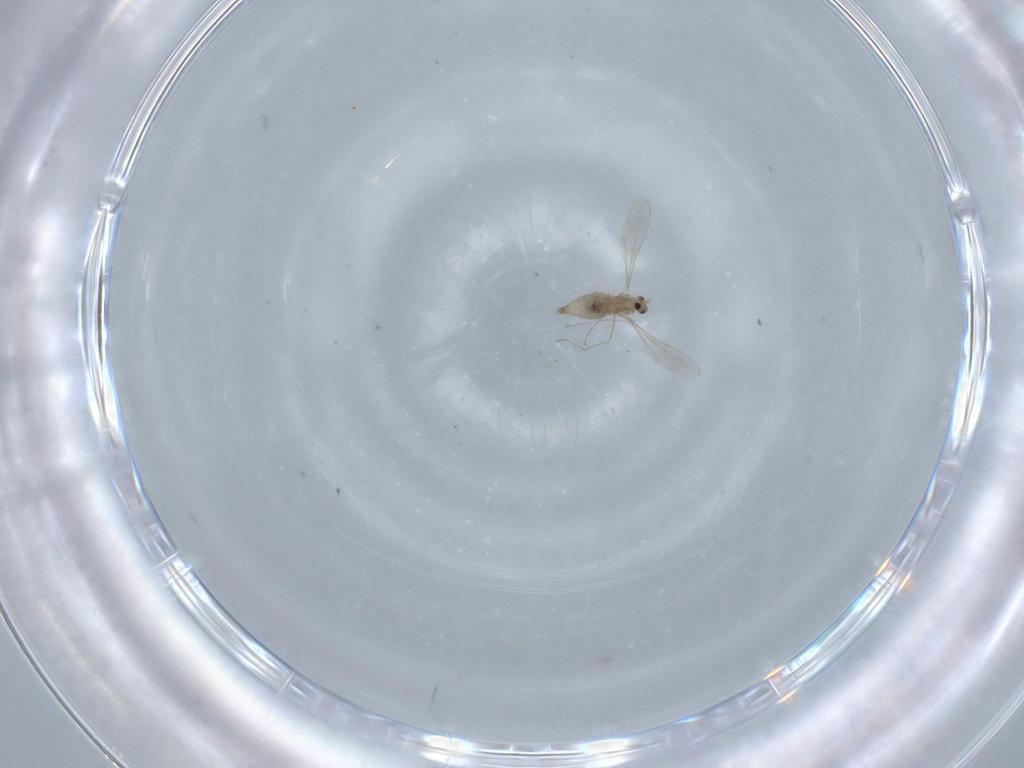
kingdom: Animalia
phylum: Arthropoda
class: Insecta
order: Diptera
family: Cecidomyiidae
